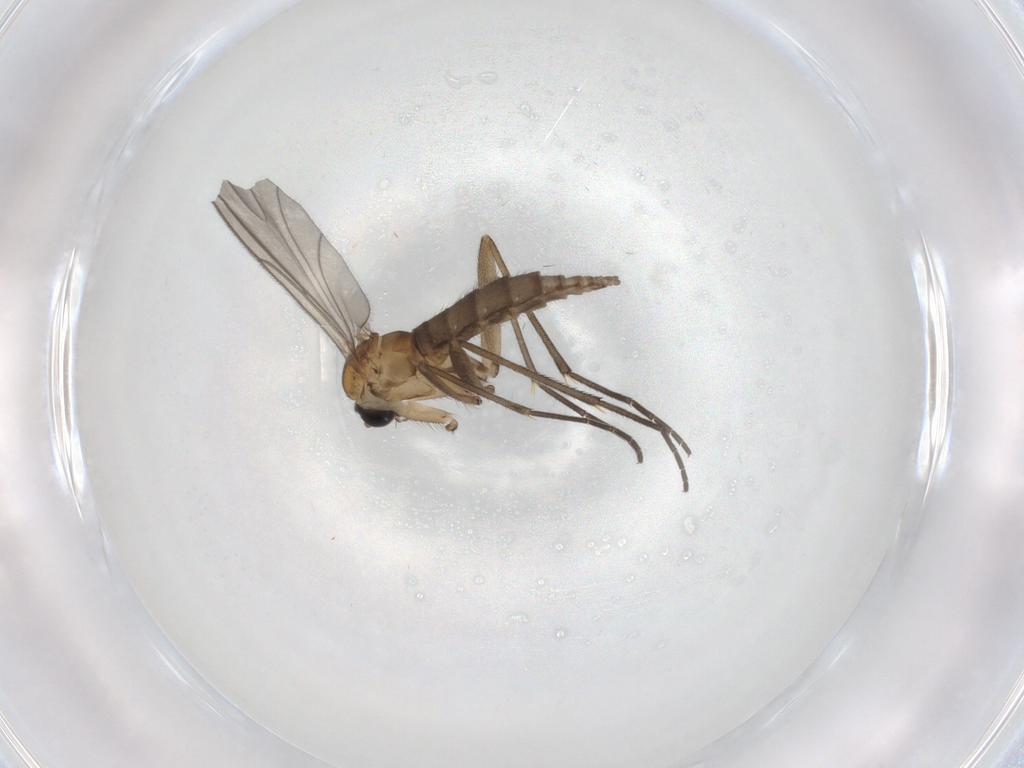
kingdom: Animalia
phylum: Arthropoda
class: Insecta
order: Diptera
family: Sciaridae
